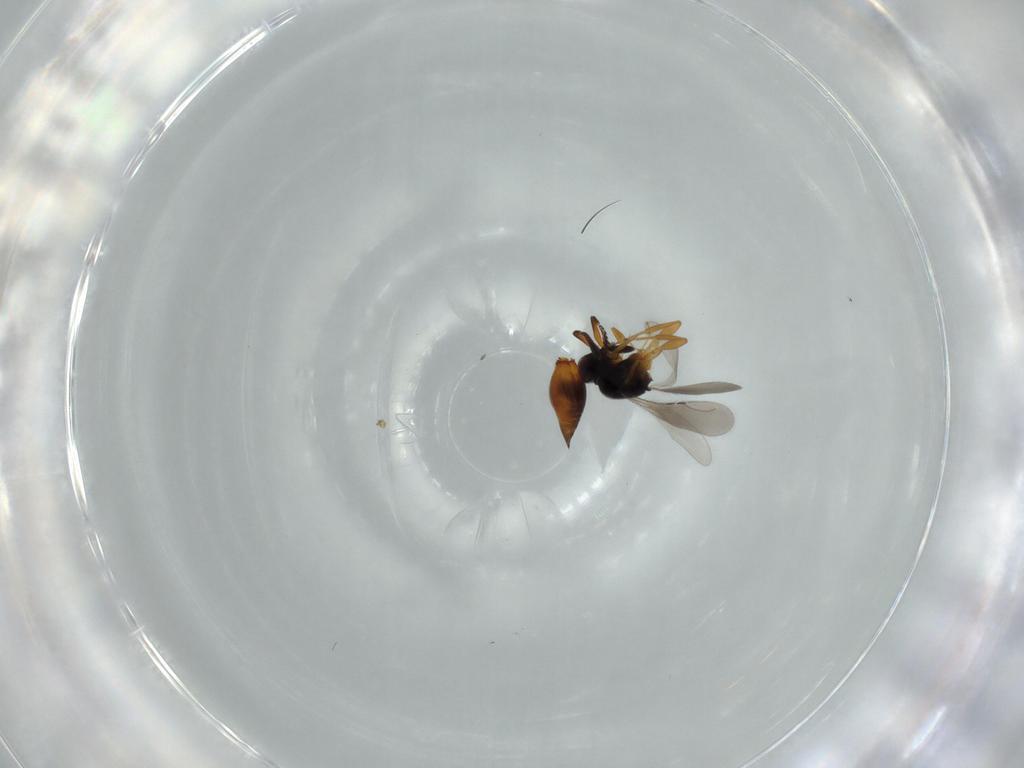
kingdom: Animalia
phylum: Arthropoda
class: Insecta
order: Hymenoptera
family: Ceraphronidae
